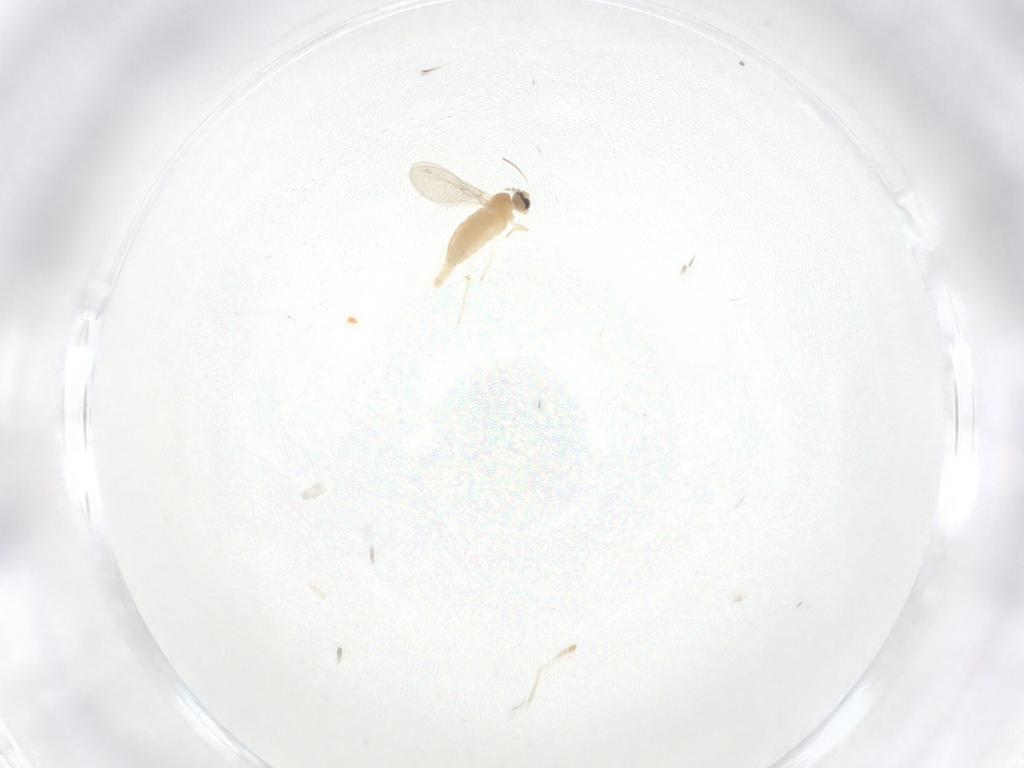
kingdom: Animalia
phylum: Arthropoda
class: Insecta
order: Diptera
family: Cecidomyiidae
